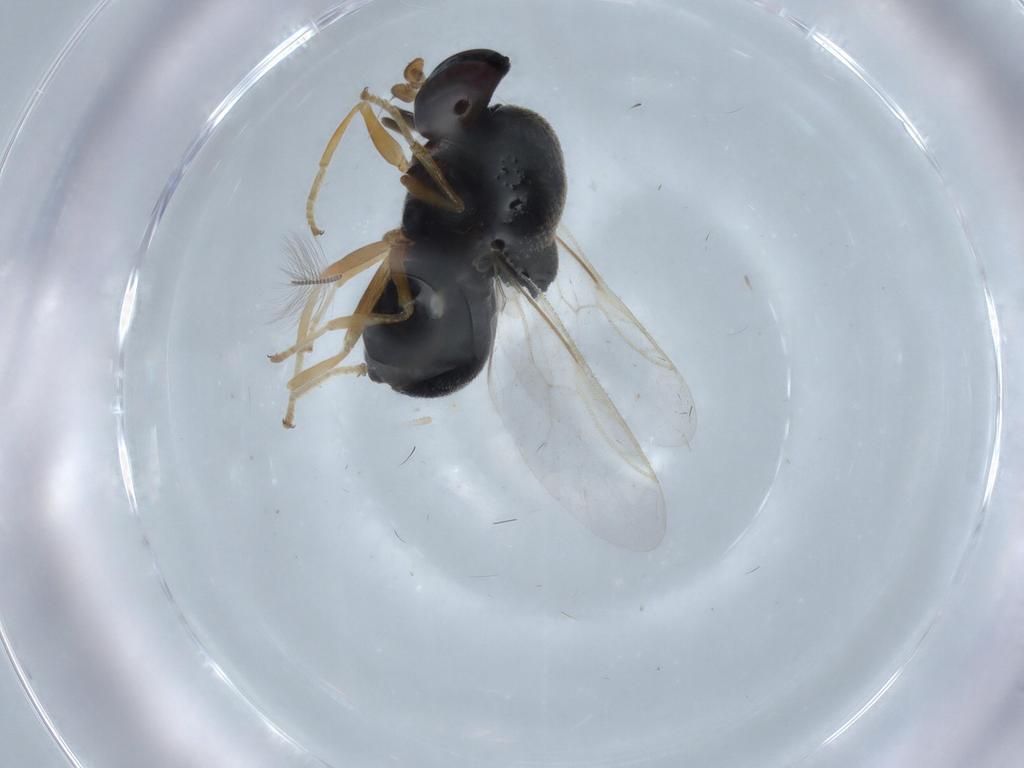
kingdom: Animalia
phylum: Arthropoda
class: Insecta
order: Diptera
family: Stratiomyidae
